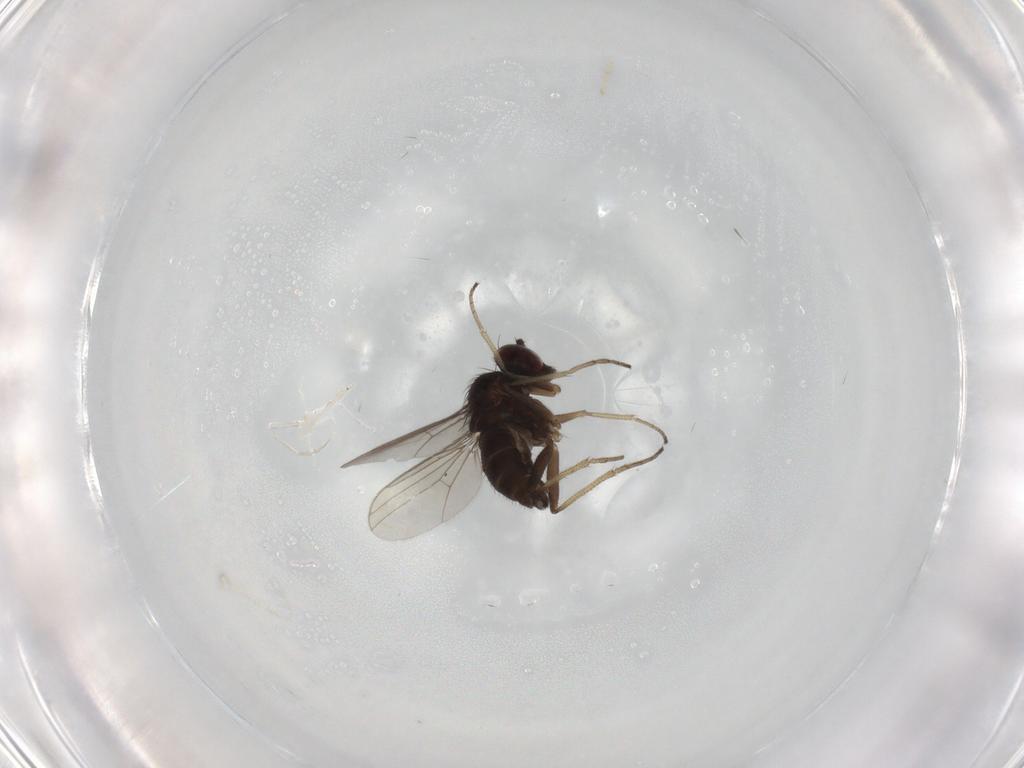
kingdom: Animalia
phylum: Arthropoda
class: Insecta
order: Diptera
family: Dolichopodidae
